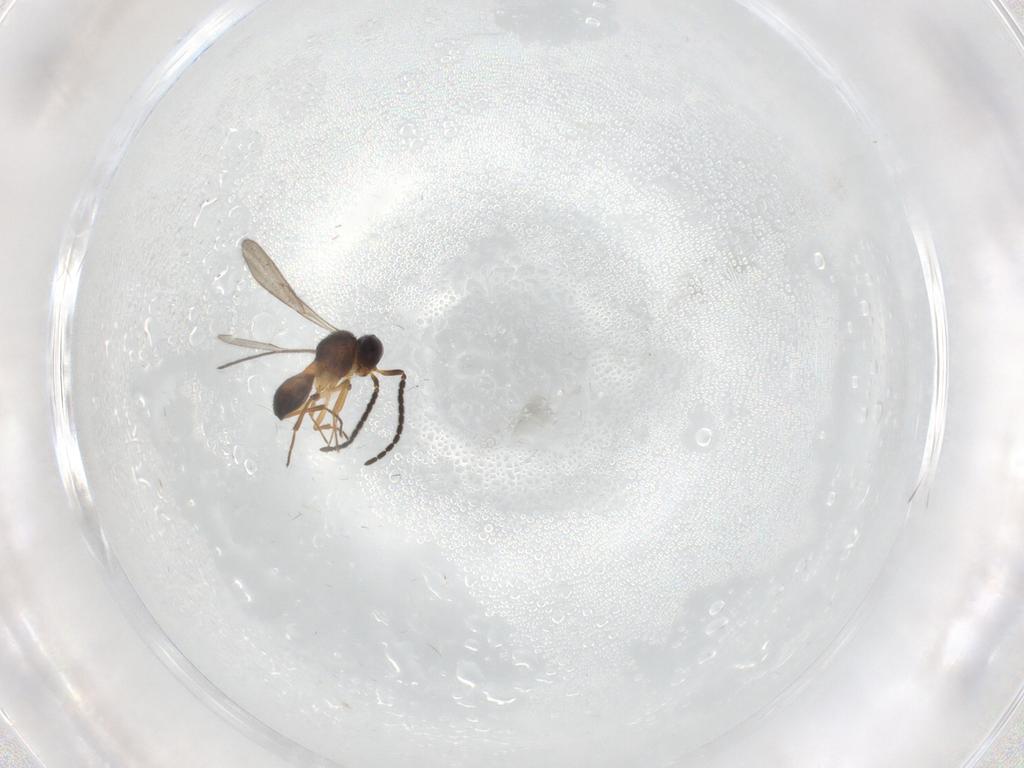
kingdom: Animalia
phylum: Arthropoda
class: Insecta
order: Hymenoptera
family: Scelionidae
